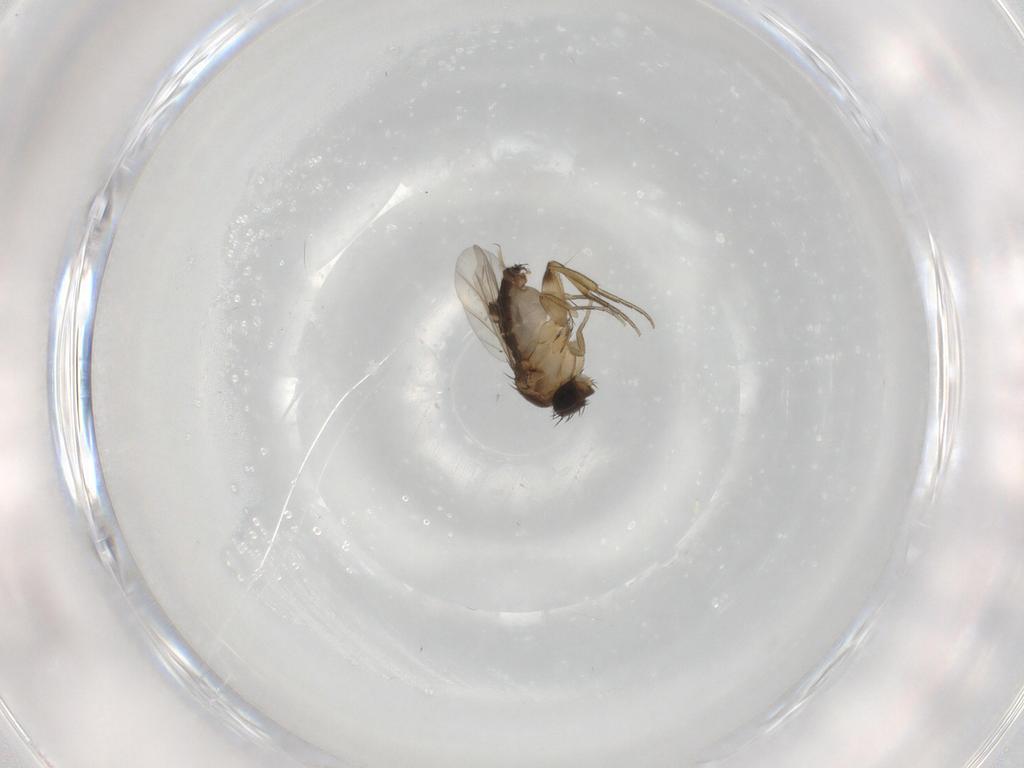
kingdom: Animalia
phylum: Arthropoda
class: Insecta
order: Diptera
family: Phoridae
